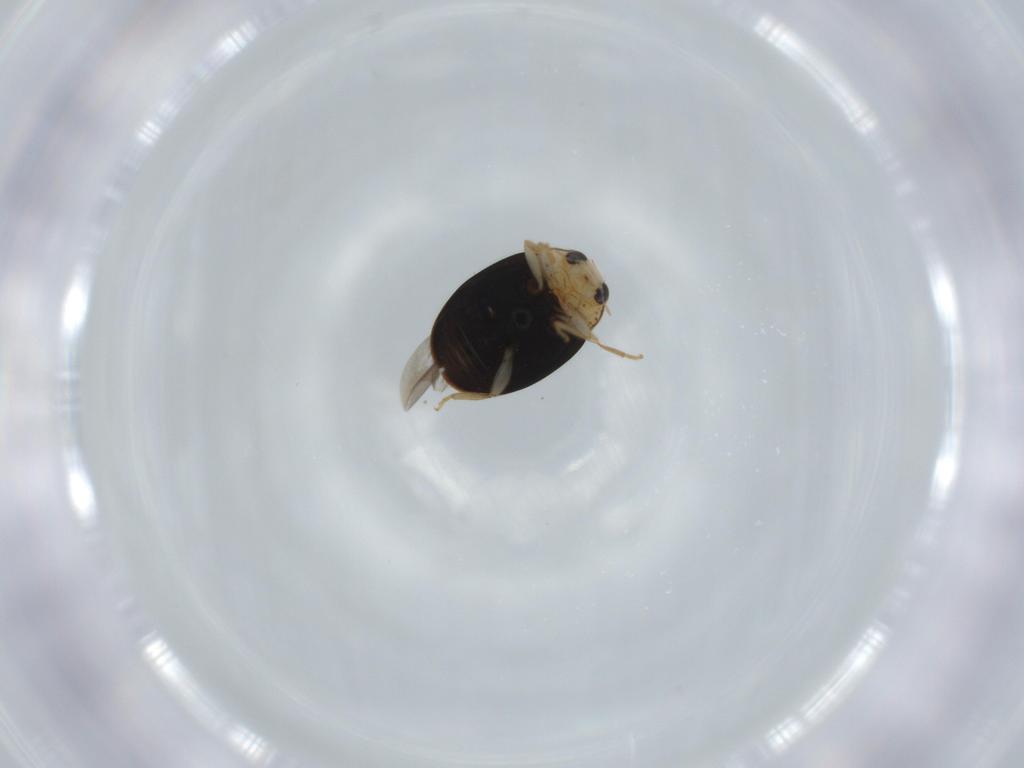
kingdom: Animalia
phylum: Arthropoda
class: Insecta
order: Coleoptera
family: Coccinellidae
